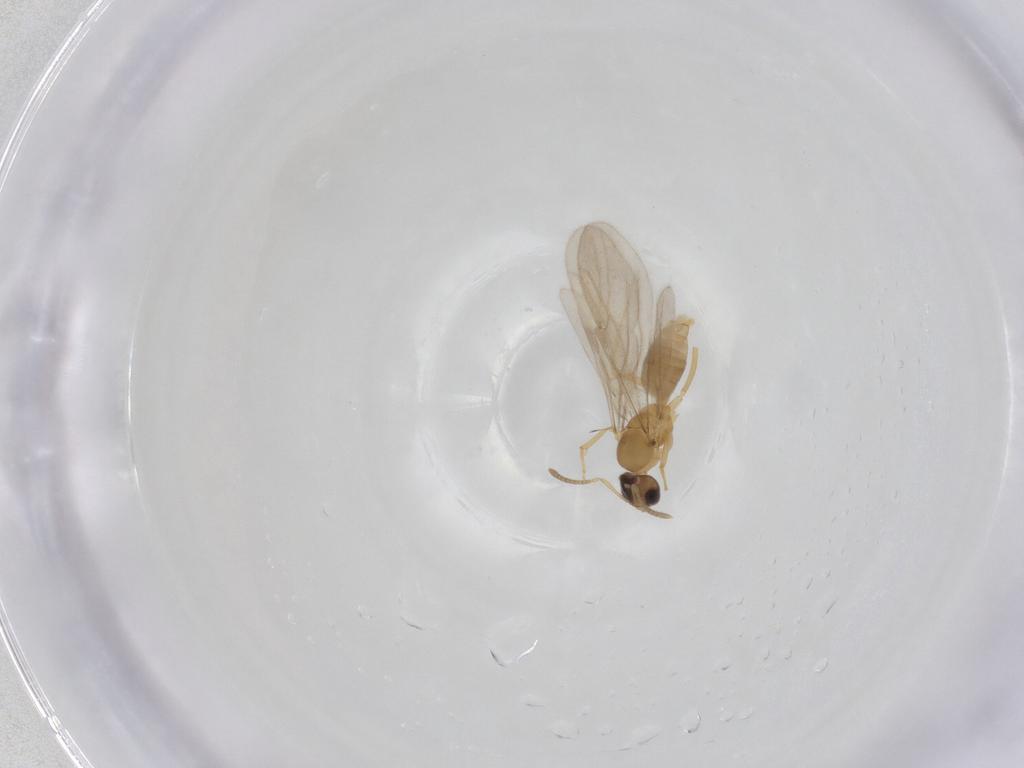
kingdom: Animalia
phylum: Arthropoda
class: Insecta
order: Hymenoptera
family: Formicidae
